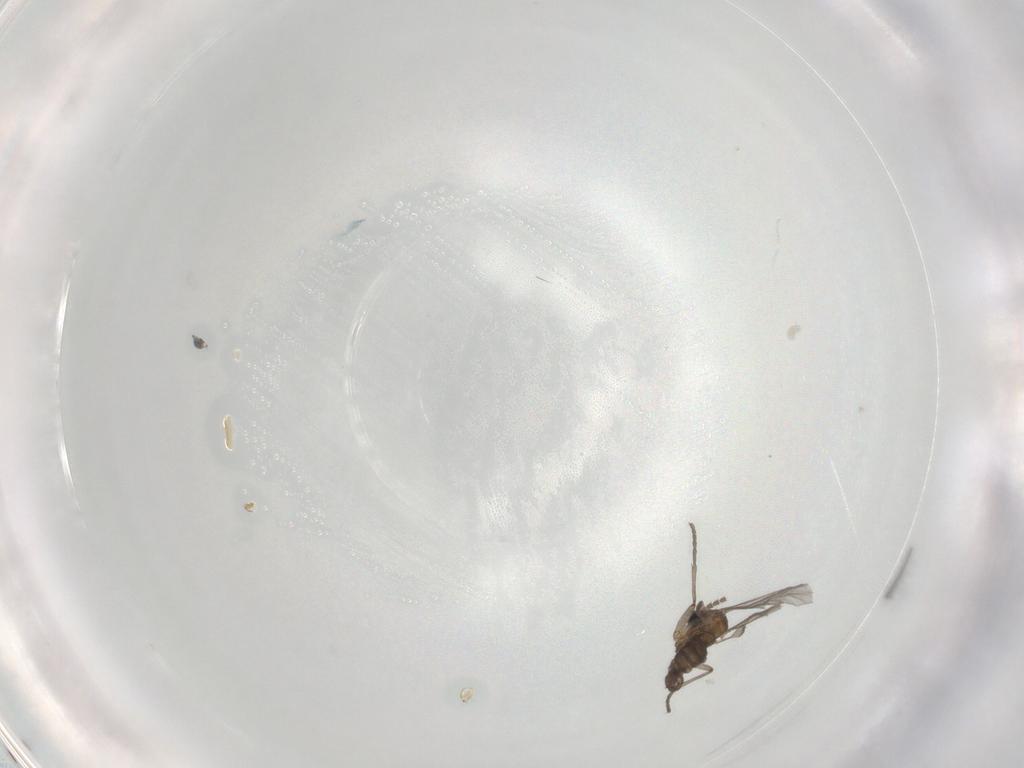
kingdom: Animalia
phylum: Arthropoda
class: Insecta
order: Diptera
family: Sciaridae
